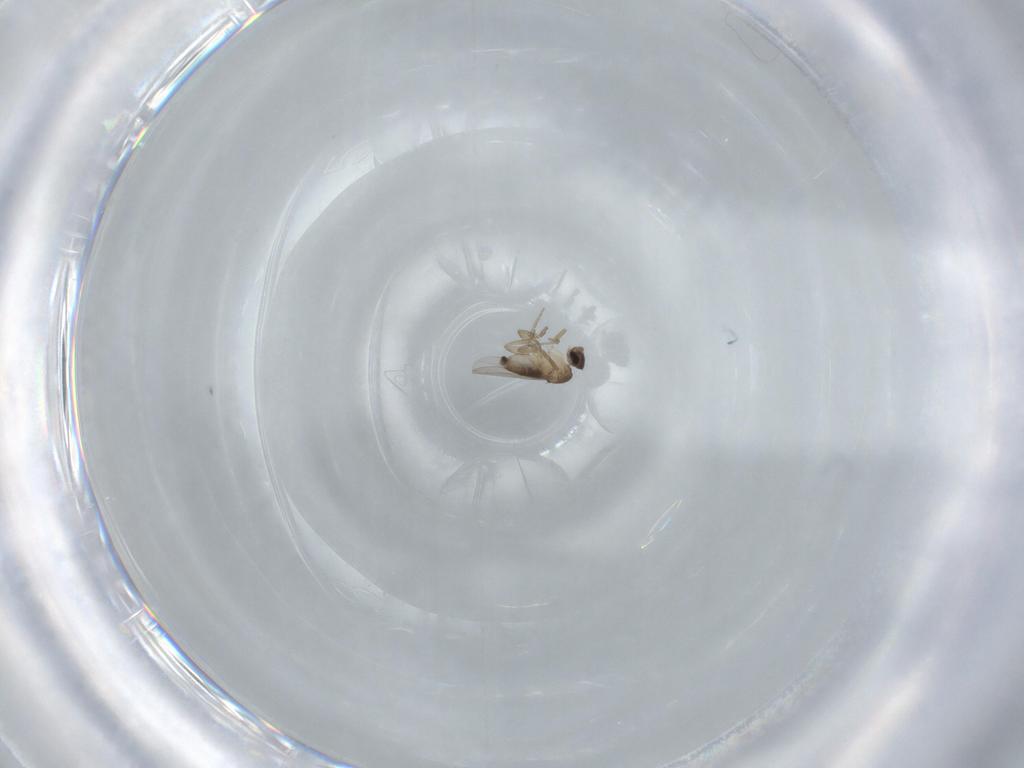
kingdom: Animalia
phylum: Arthropoda
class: Insecta
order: Diptera
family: Phoridae
